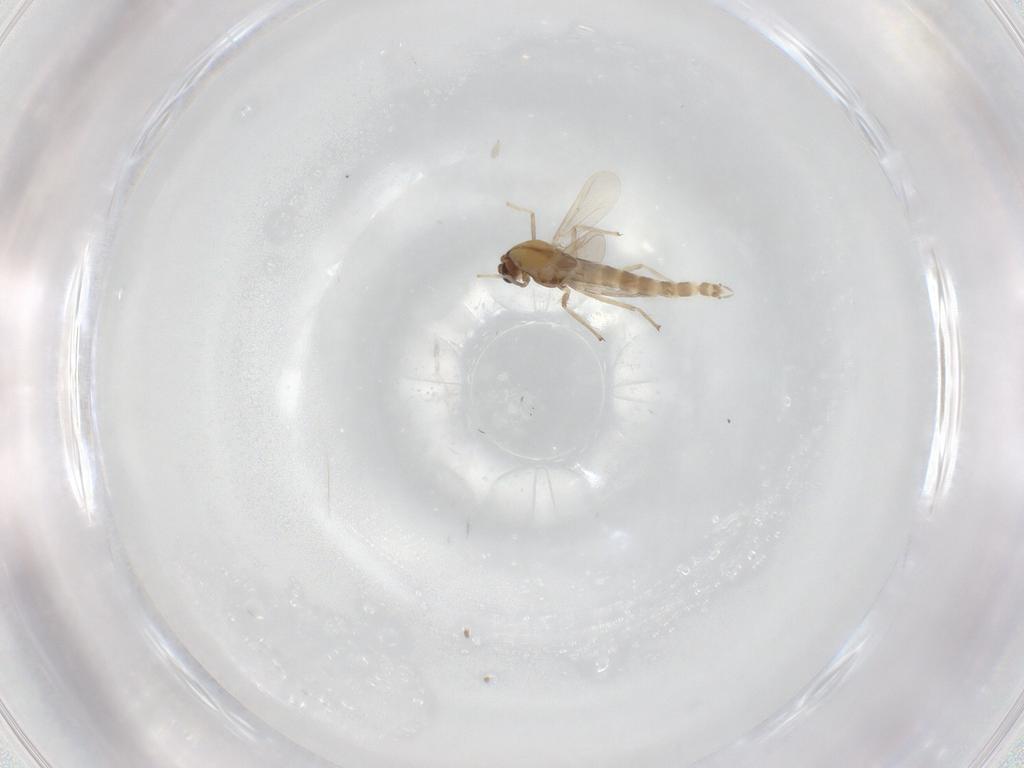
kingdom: Animalia
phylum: Arthropoda
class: Insecta
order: Diptera
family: Chironomidae
